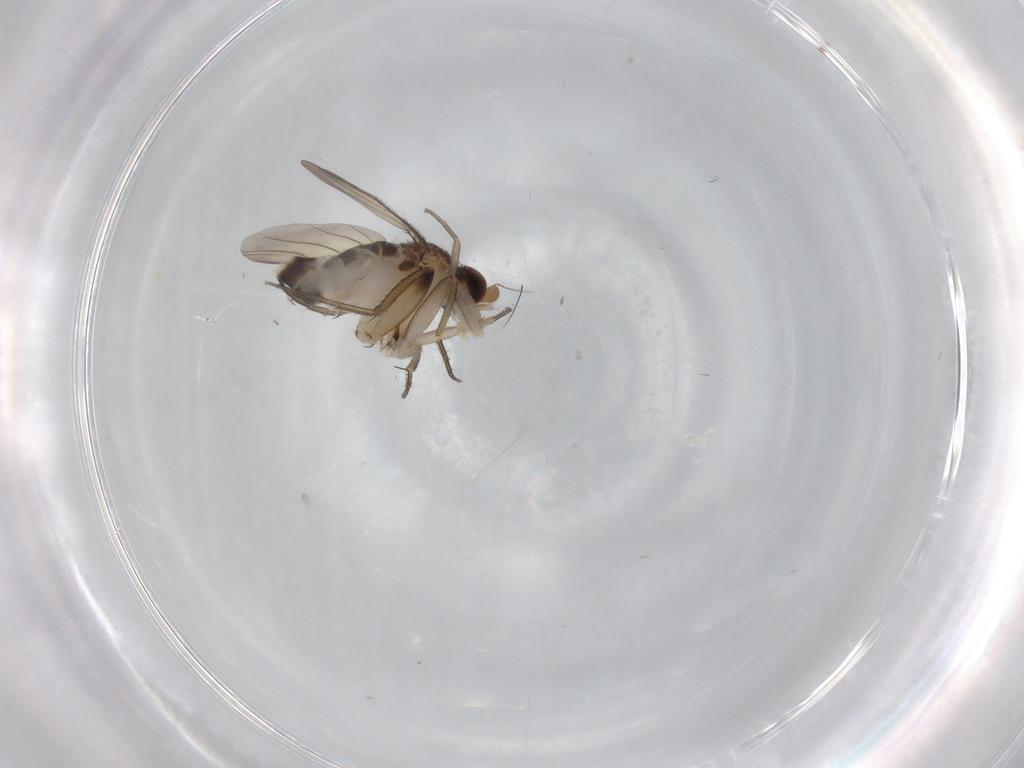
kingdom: Animalia
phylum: Arthropoda
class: Insecta
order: Diptera
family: Phoridae
